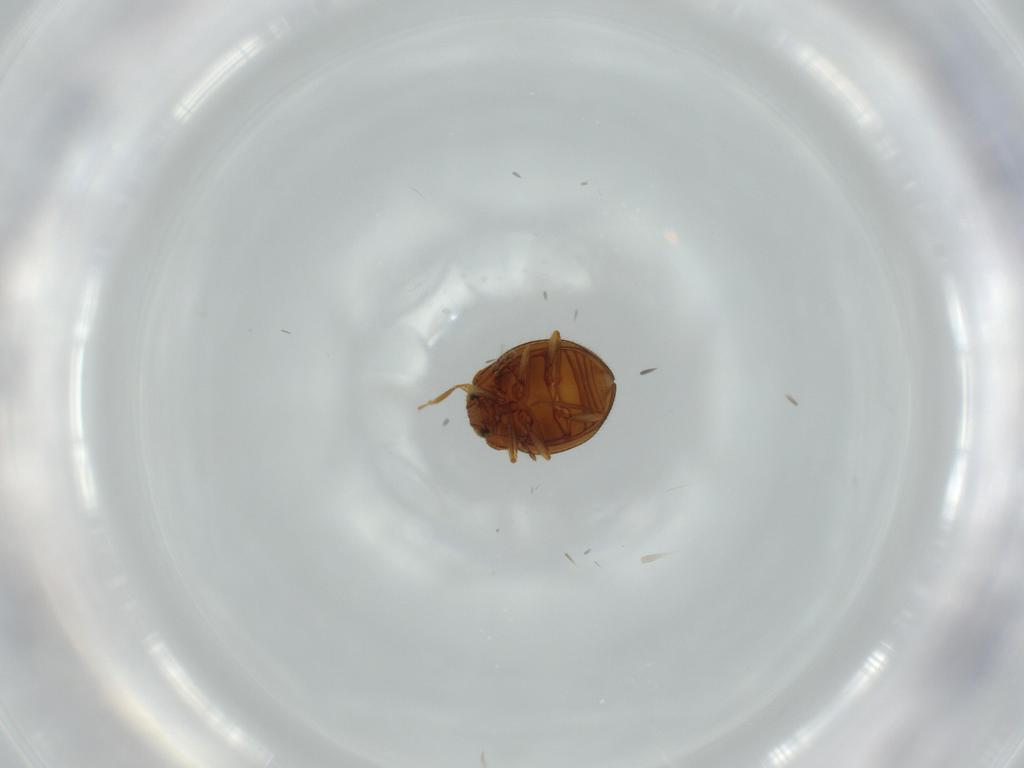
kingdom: Animalia
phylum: Arthropoda
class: Insecta
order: Coleoptera
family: Anamorphidae
